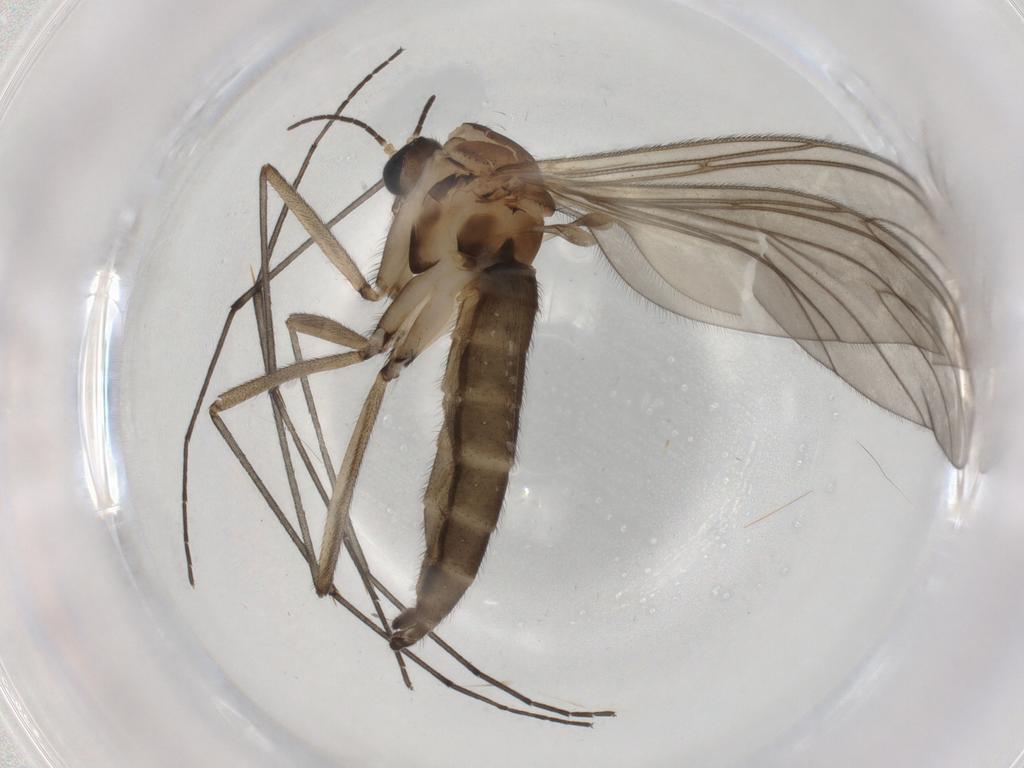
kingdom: Animalia
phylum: Arthropoda
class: Insecta
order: Diptera
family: Sciaridae
